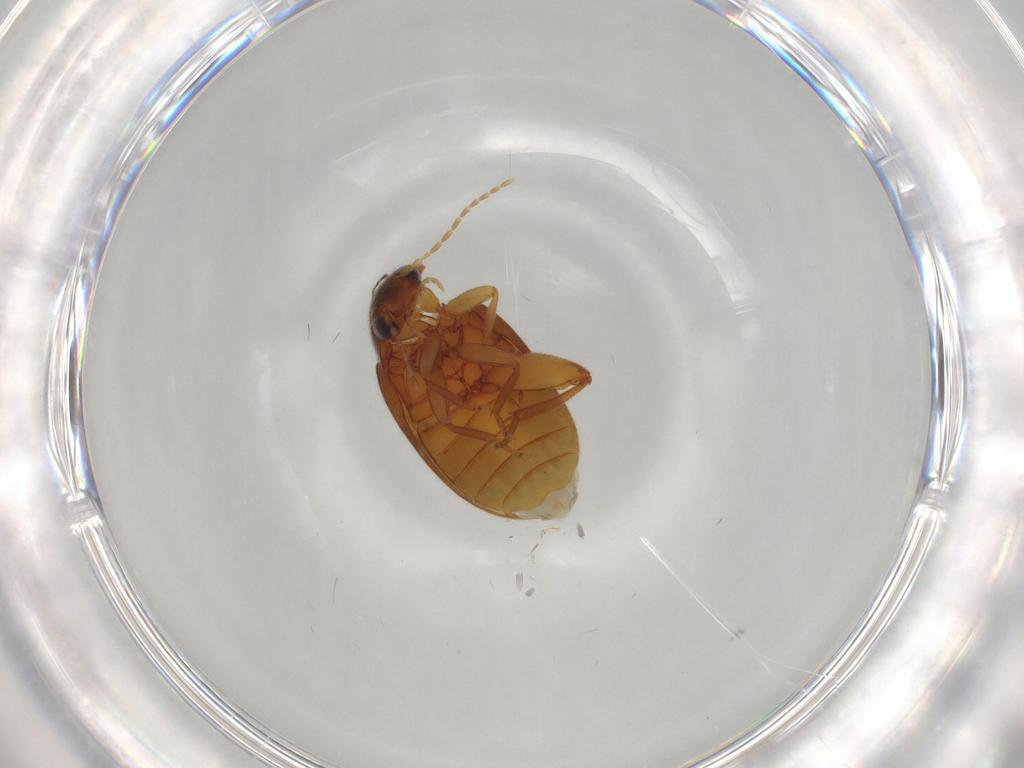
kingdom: Animalia
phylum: Arthropoda
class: Insecta
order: Coleoptera
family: Scirtidae
